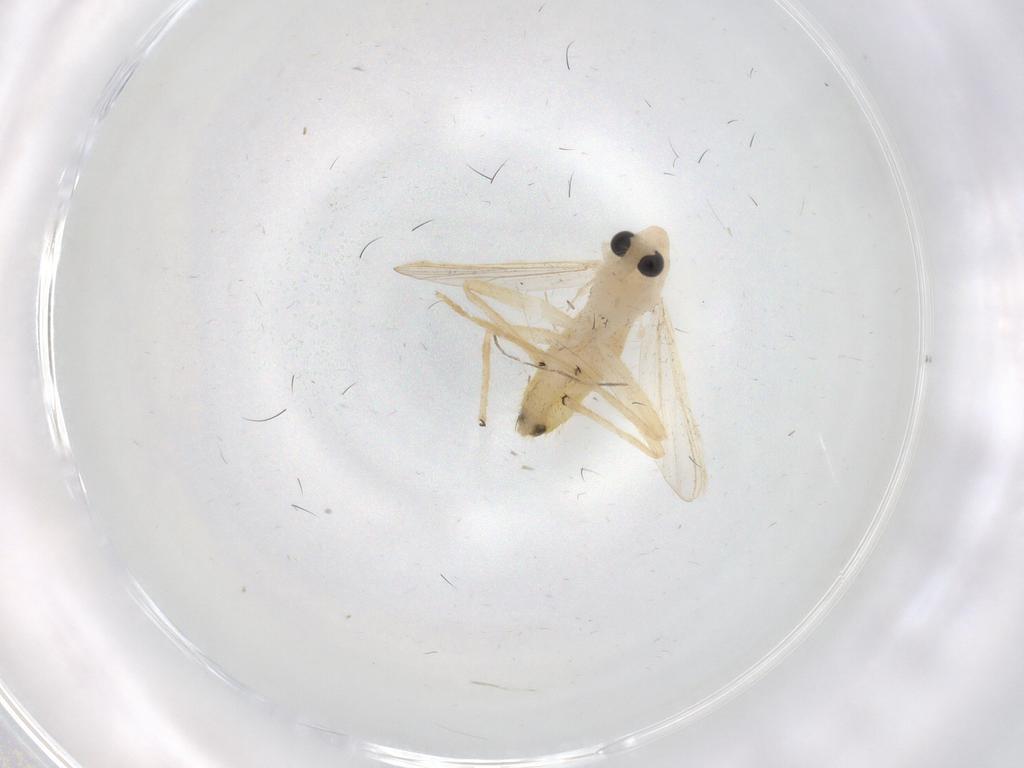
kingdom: Animalia
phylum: Arthropoda
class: Insecta
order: Diptera
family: Chironomidae
